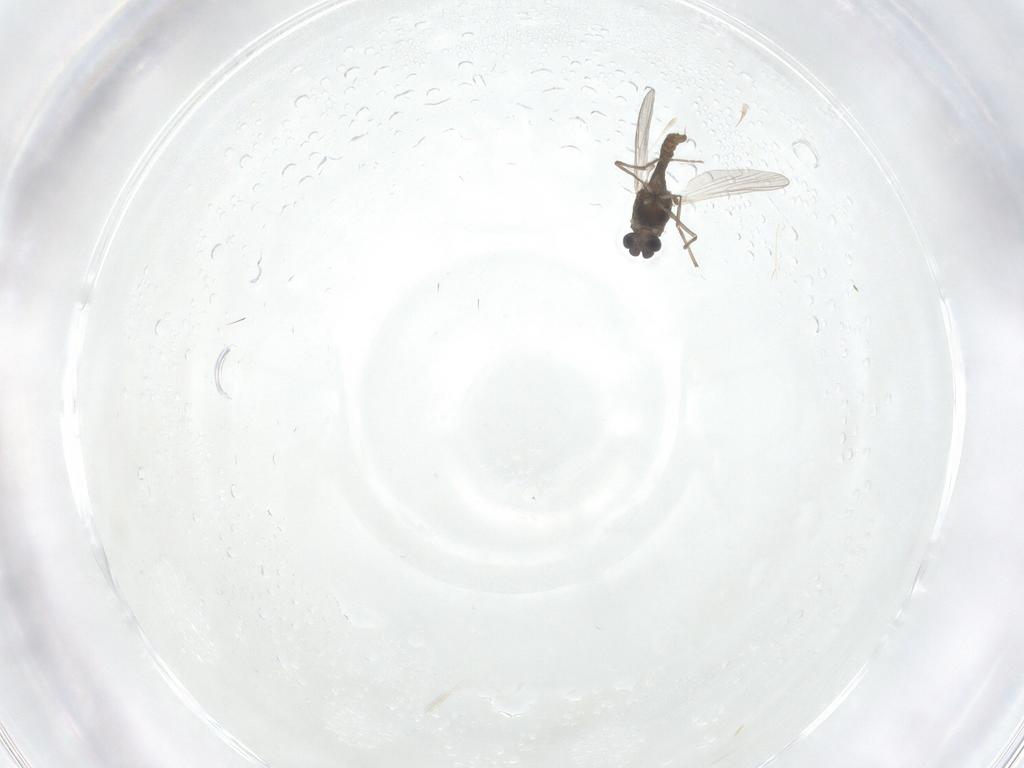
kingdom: Animalia
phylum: Arthropoda
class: Insecta
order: Diptera
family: Chironomidae
